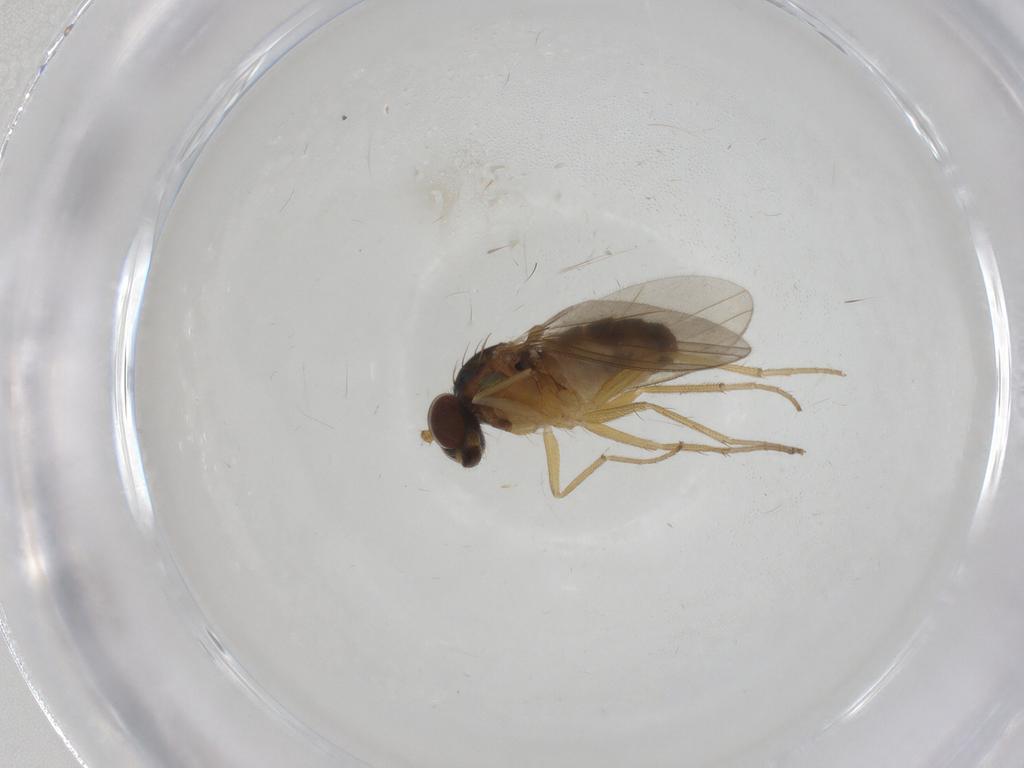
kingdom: Animalia
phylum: Arthropoda
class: Insecta
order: Diptera
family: Dolichopodidae
